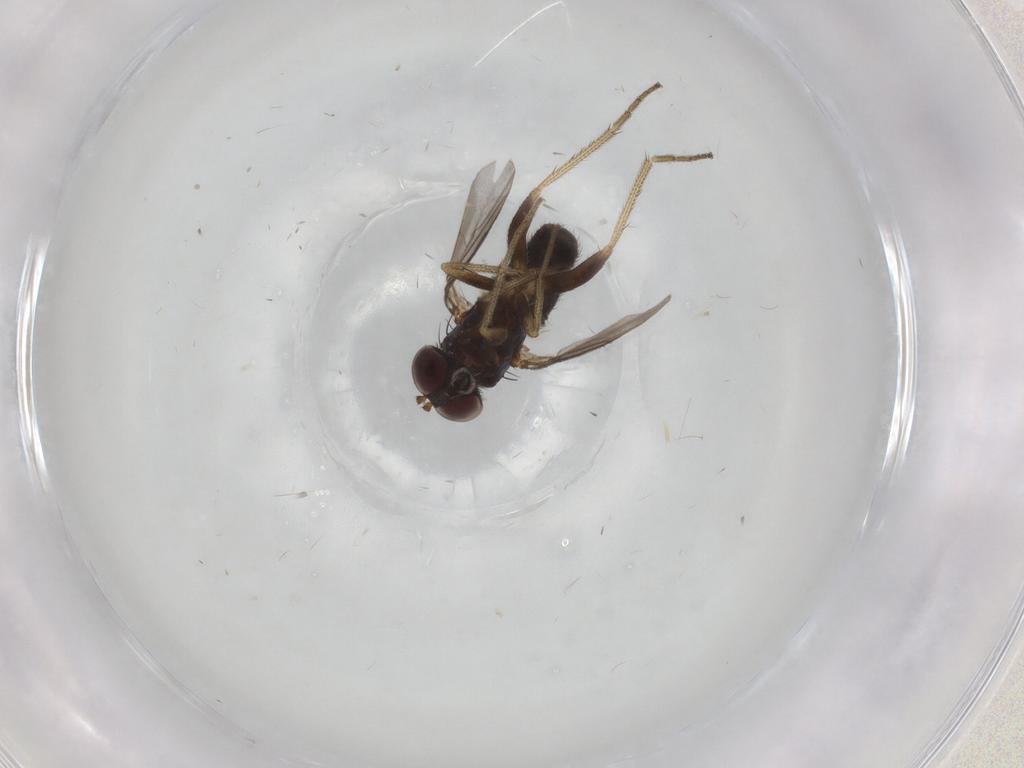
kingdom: Animalia
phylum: Arthropoda
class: Insecta
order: Diptera
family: Dolichopodidae
